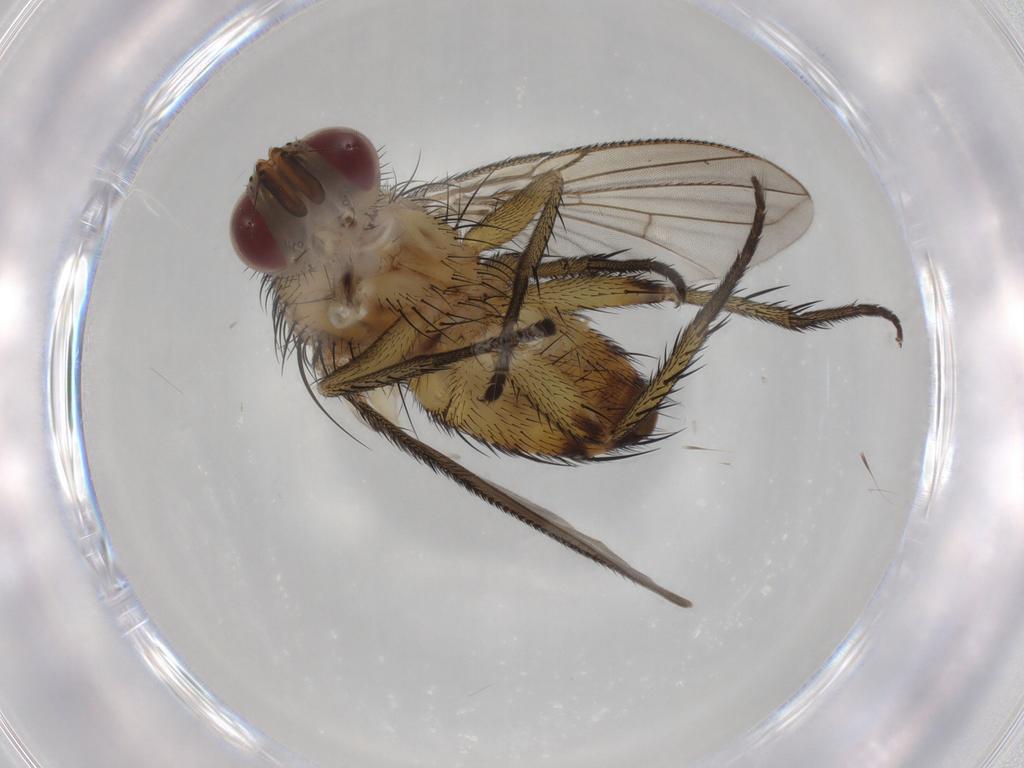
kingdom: Animalia
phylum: Arthropoda
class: Insecta
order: Diptera
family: Tachinidae
